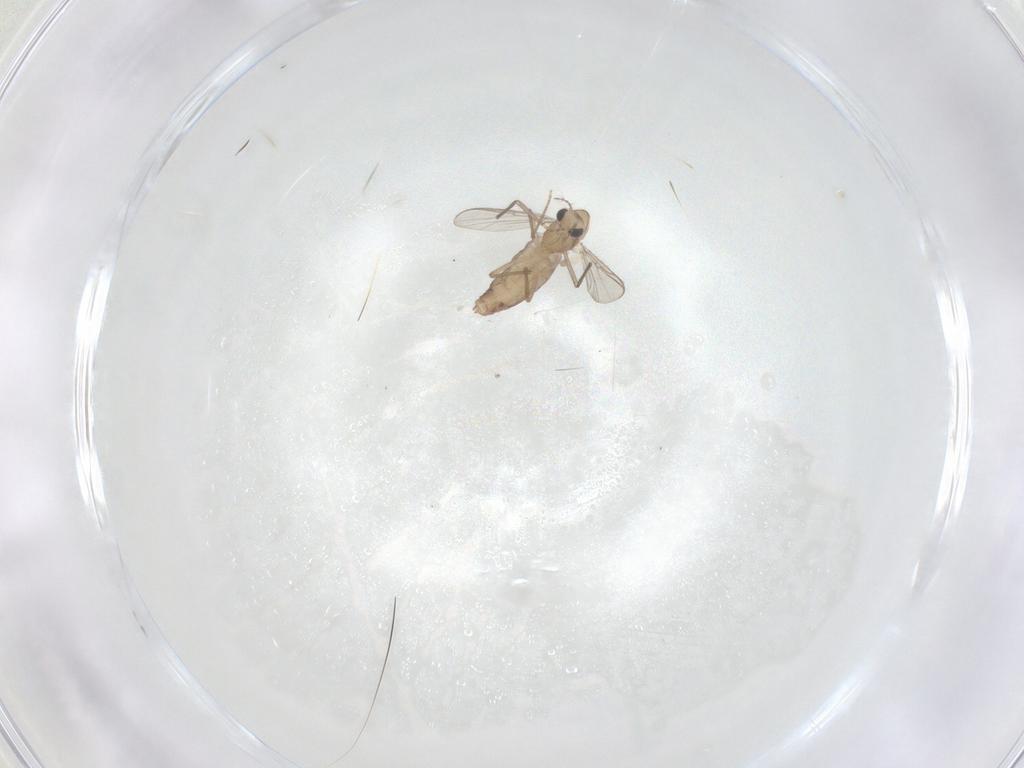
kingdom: Animalia
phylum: Arthropoda
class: Insecta
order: Diptera
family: Chironomidae
